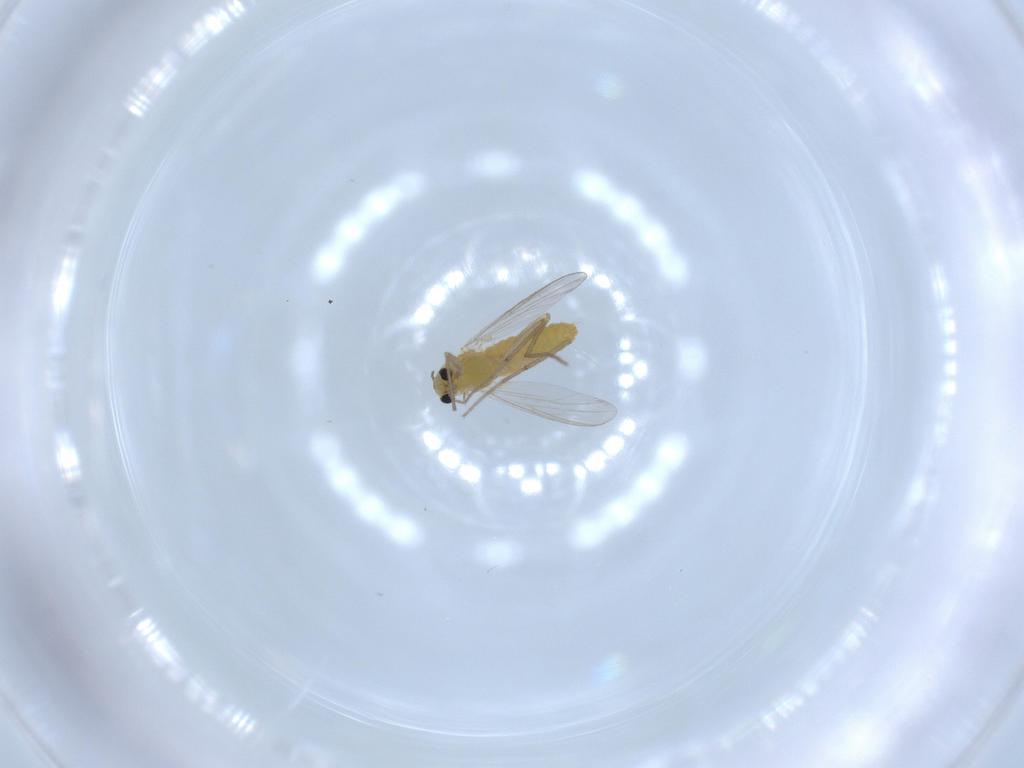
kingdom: Animalia
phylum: Arthropoda
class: Insecta
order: Diptera
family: Chironomidae
